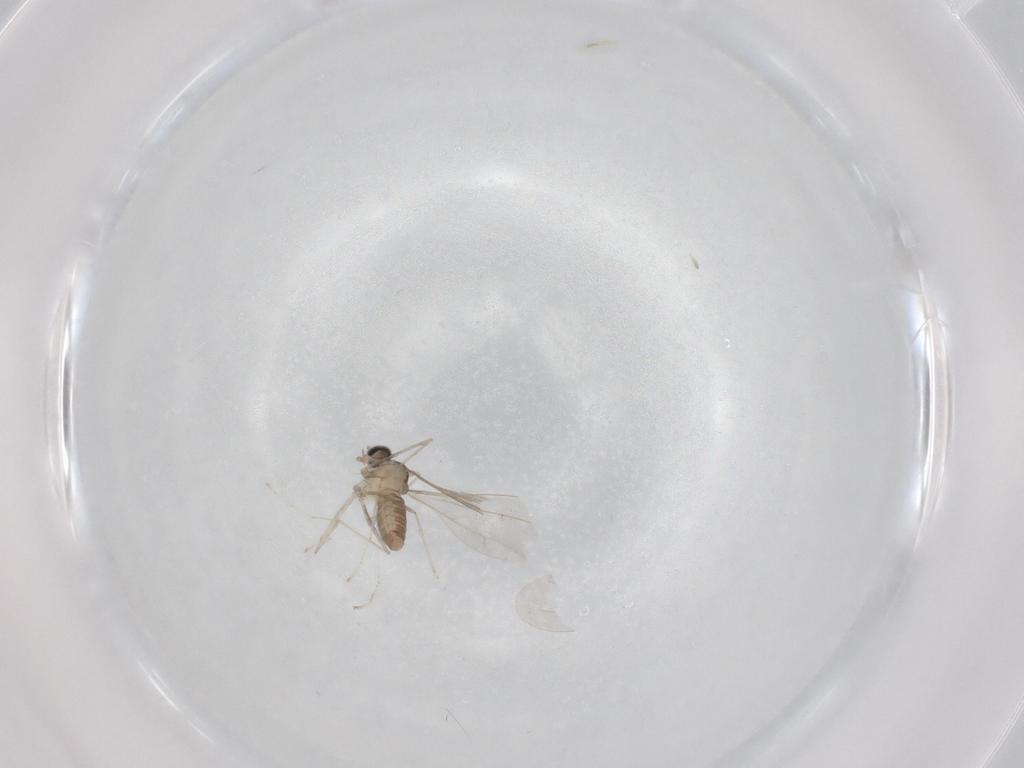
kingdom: Animalia
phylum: Arthropoda
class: Insecta
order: Diptera
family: Cecidomyiidae
